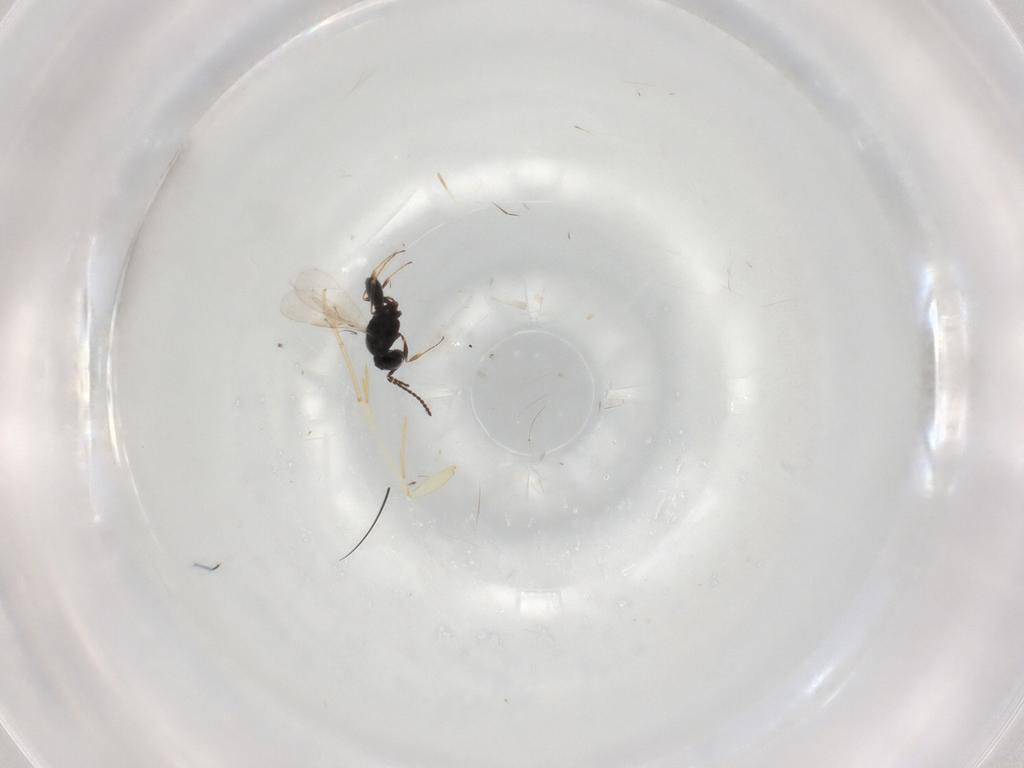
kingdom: Animalia
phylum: Arthropoda
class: Insecta
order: Hymenoptera
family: Scelionidae
